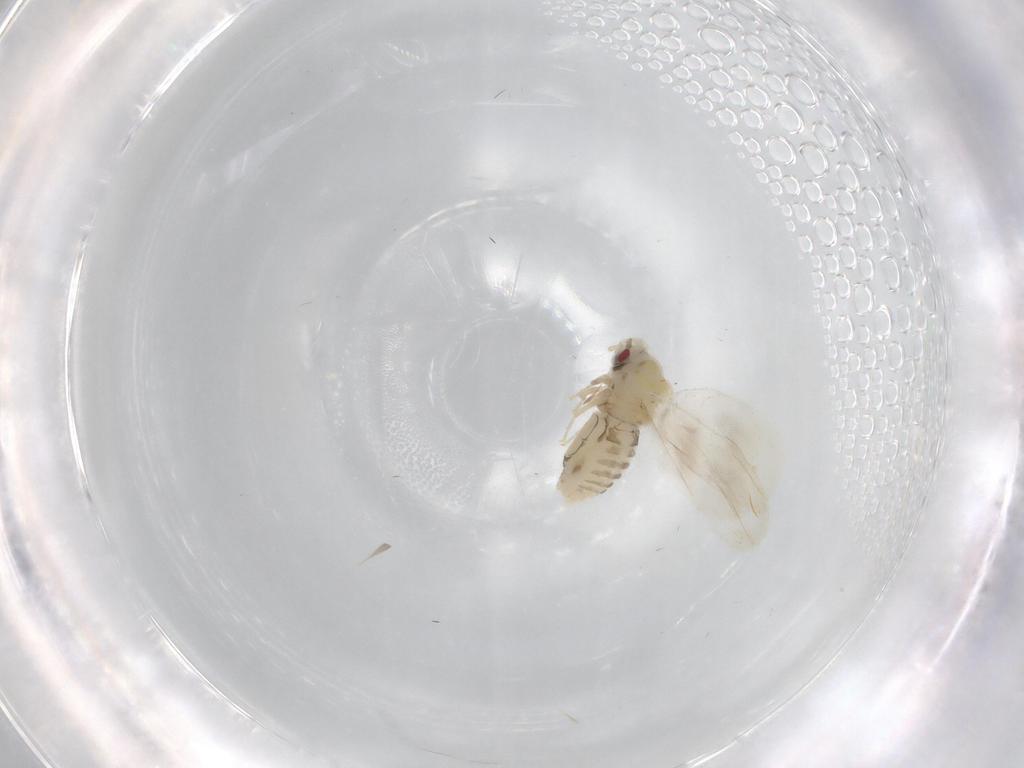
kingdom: Animalia
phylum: Arthropoda
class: Insecta
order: Hemiptera
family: Aleyrodidae
